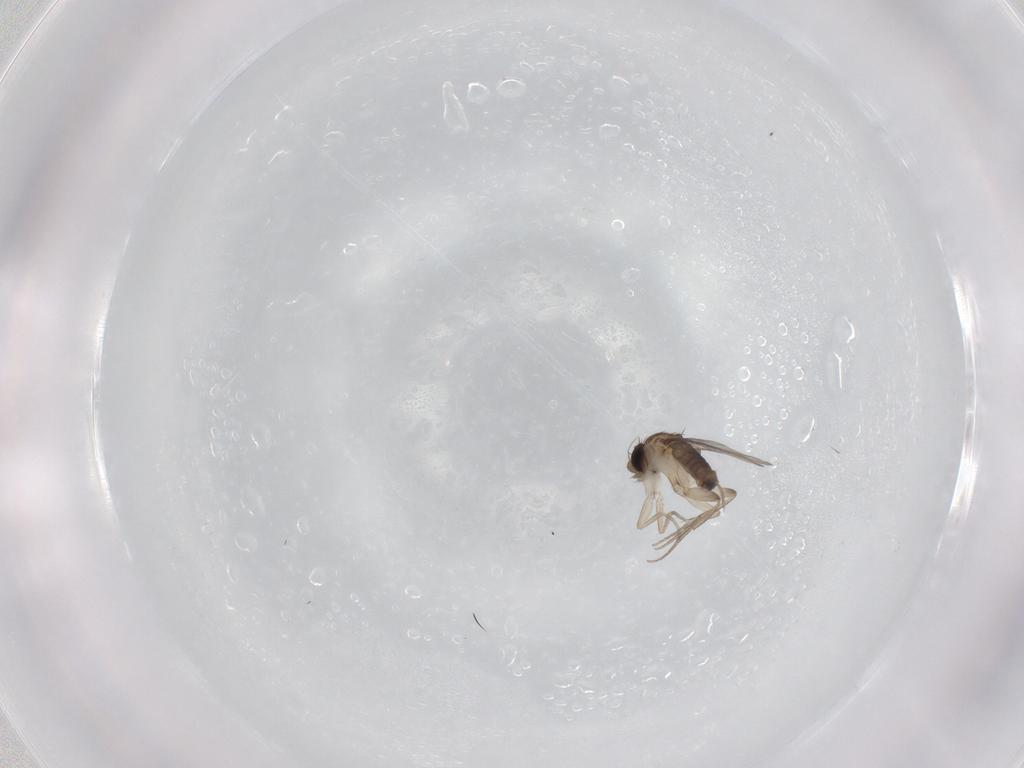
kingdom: Animalia
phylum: Arthropoda
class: Insecta
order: Diptera
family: Phoridae
